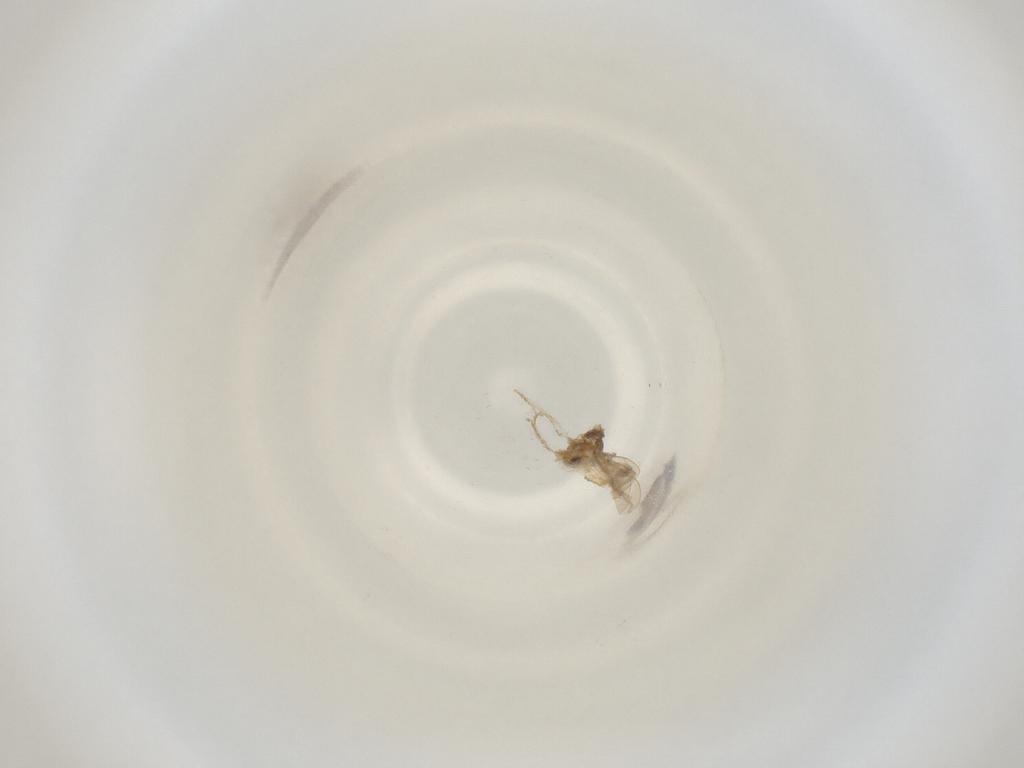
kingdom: Animalia
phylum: Arthropoda
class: Insecta
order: Diptera
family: Cecidomyiidae
